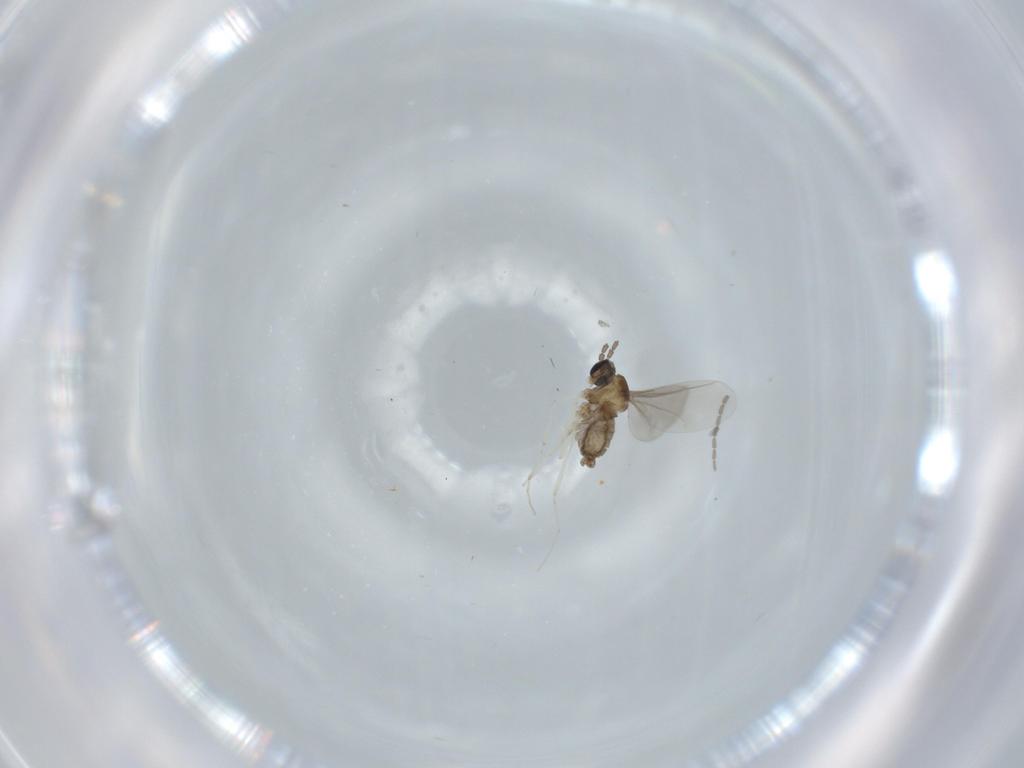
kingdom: Animalia
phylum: Arthropoda
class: Insecta
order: Diptera
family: Cecidomyiidae
